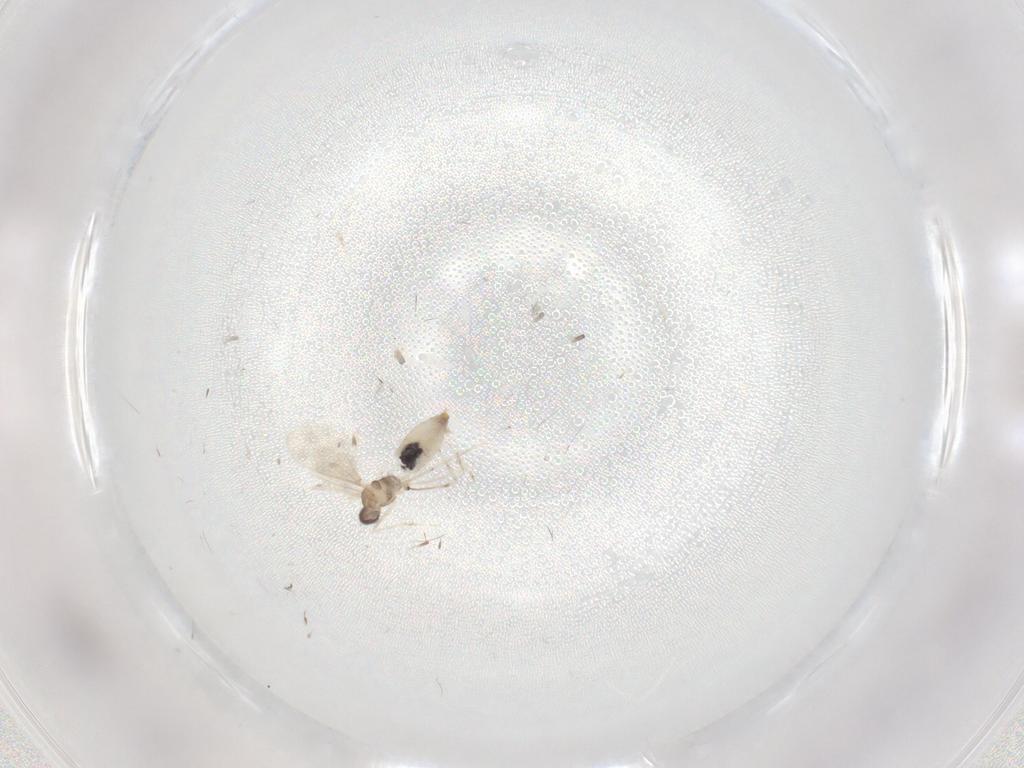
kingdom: Animalia
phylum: Arthropoda
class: Insecta
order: Diptera
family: Cecidomyiidae
